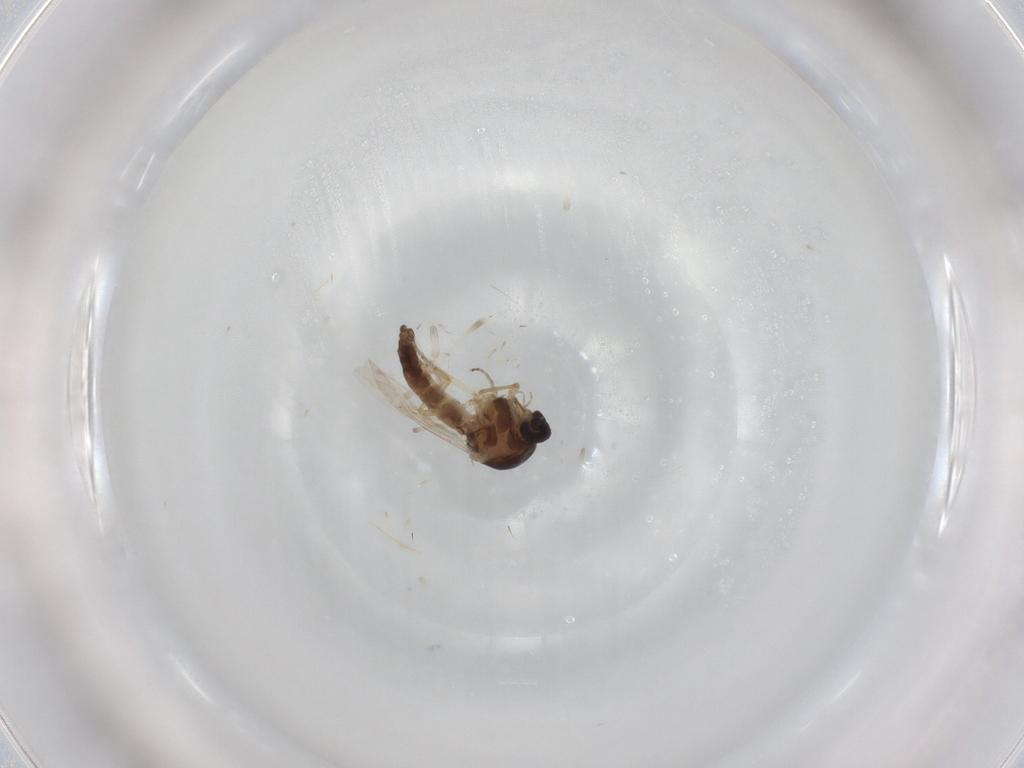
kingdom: Animalia
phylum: Arthropoda
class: Insecta
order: Diptera
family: Ceratopogonidae
